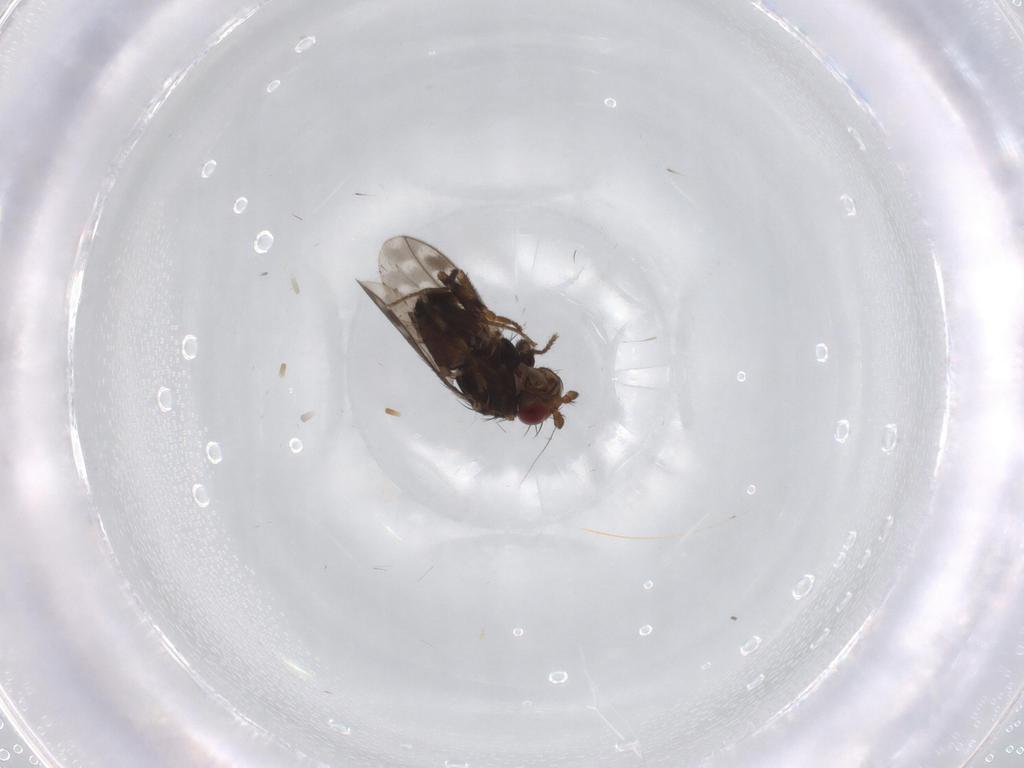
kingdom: Animalia
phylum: Arthropoda
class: Insecta
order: Diptera
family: Sphaeroceridae
